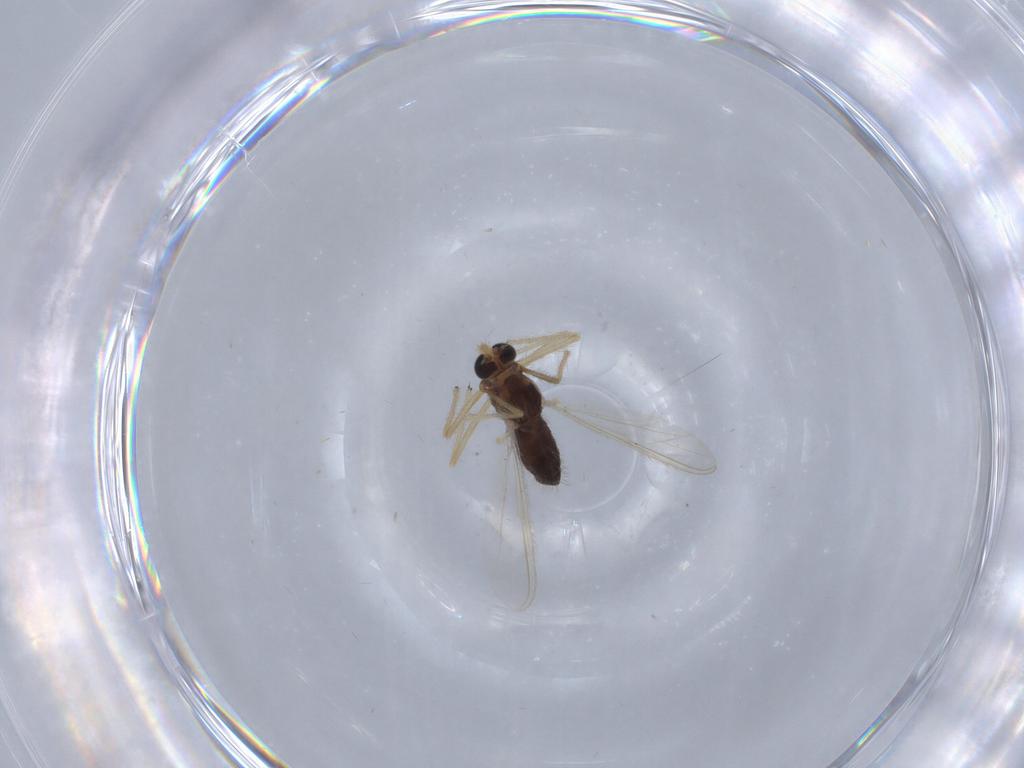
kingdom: Animalia
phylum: Arthropoda
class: Insecta
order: Diptera
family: Chironomidae
